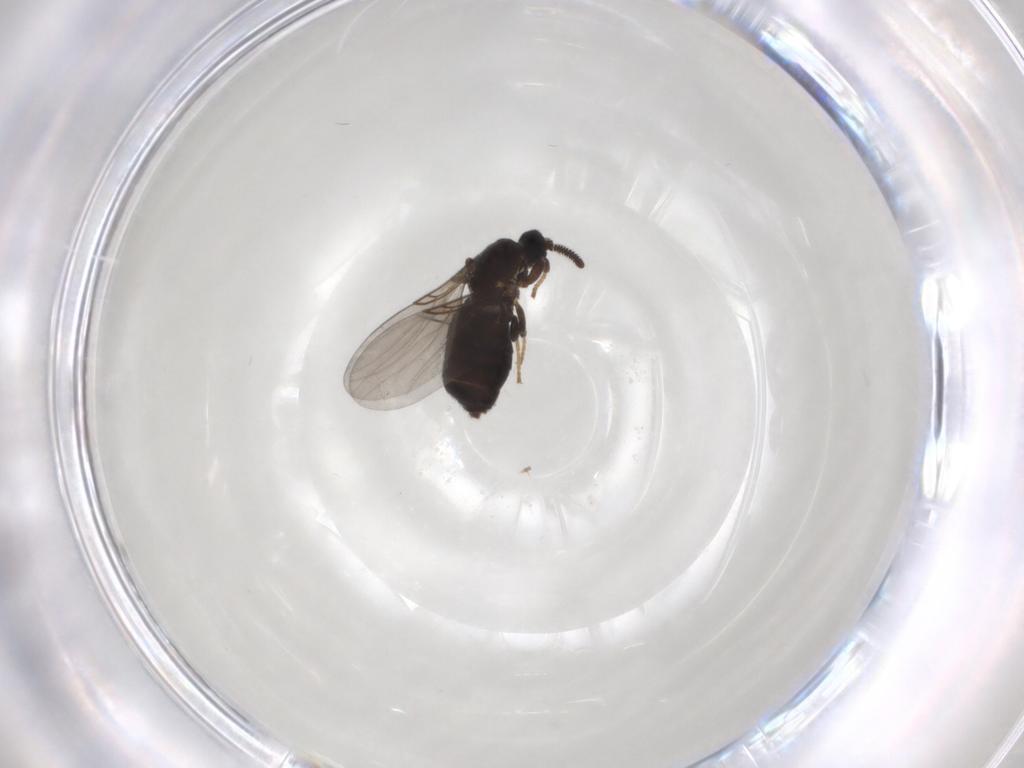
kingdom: Animalia
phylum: Arthropoda
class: Insecta
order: Diptera
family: Scatopsidae
